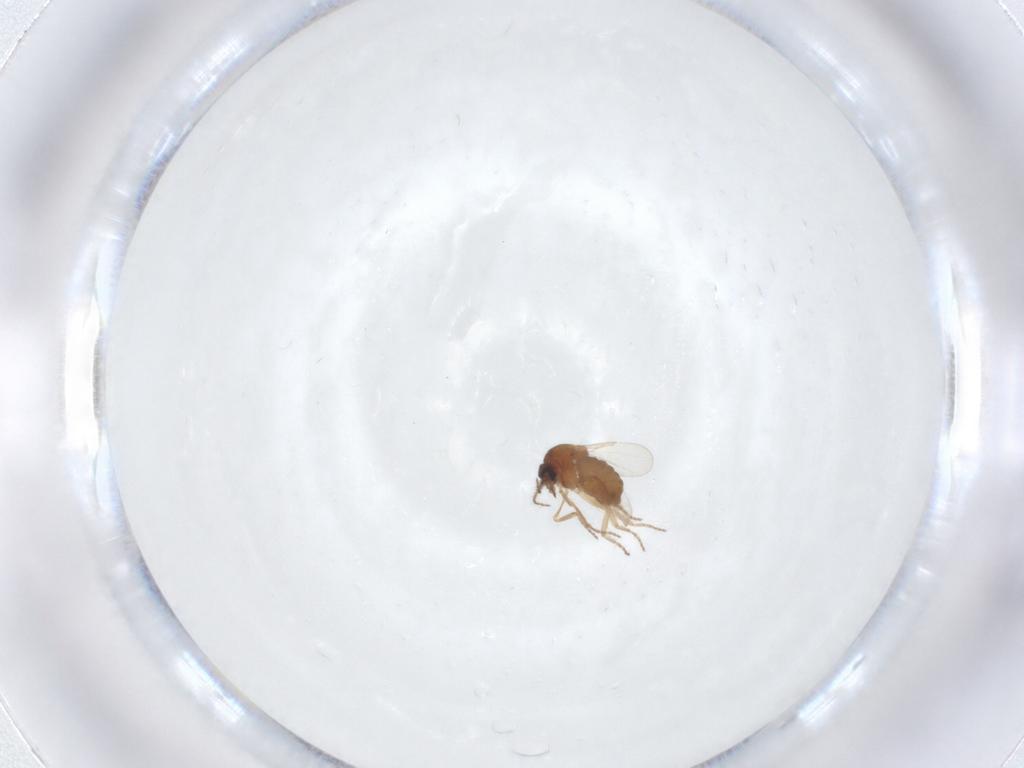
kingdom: Animalia
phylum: Arthropoda
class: Insecta
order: Diptera
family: Ceratopogonidae
